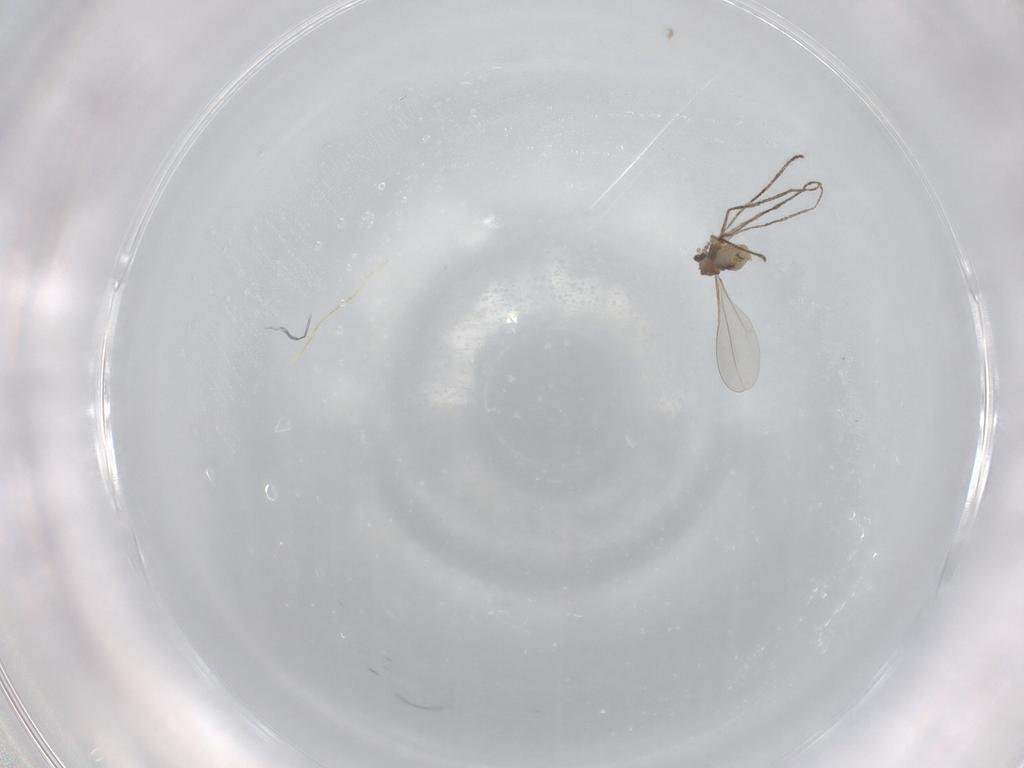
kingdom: Animalia
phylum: Arthropoda
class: Insecta
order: Diptera
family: Cecidomyiidae
